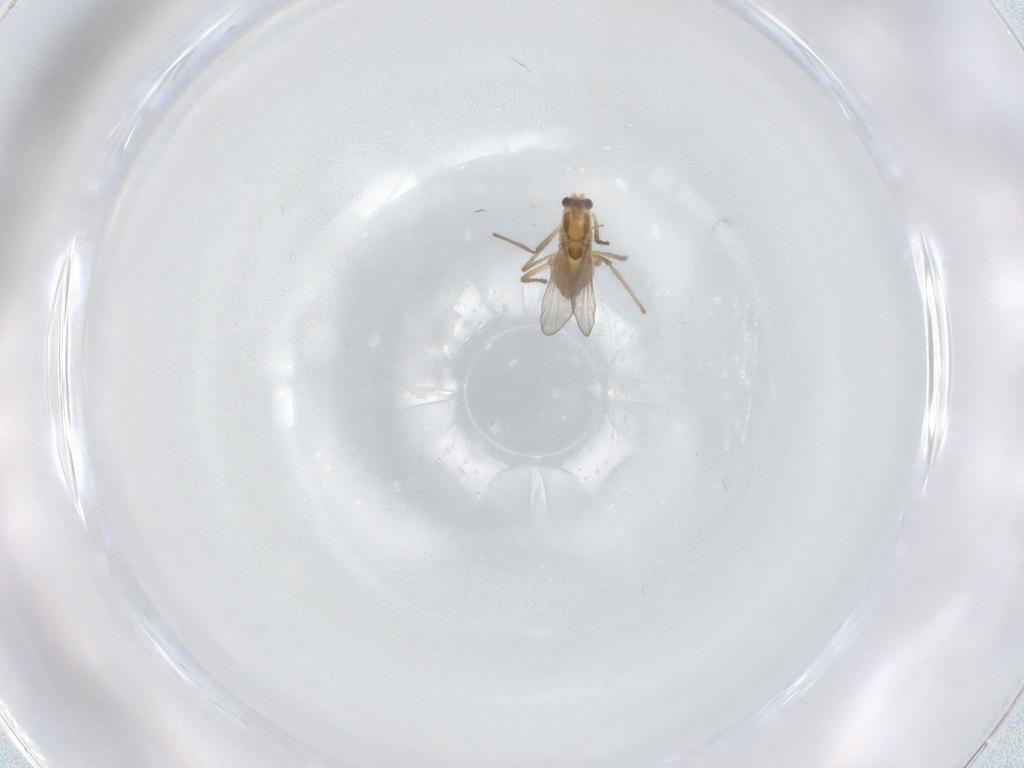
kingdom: Animalia
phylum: Arthropoda
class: Insecta
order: Diptera
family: Chironomidae
